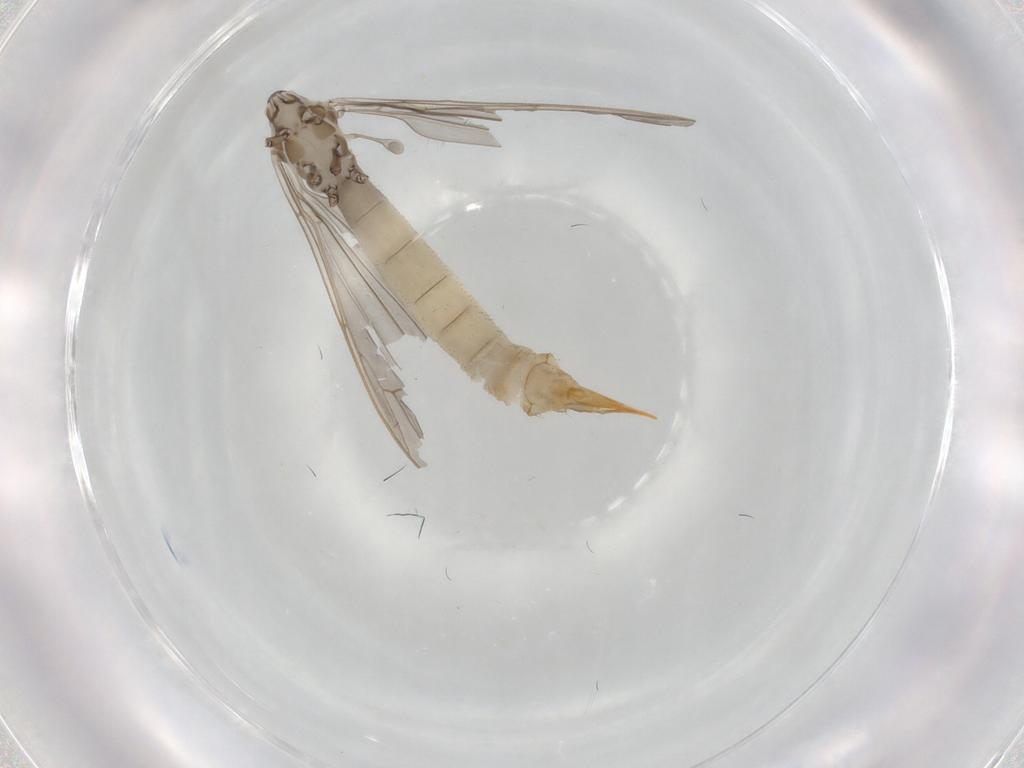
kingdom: Animalia
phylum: Arthropoda
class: Insecta
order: Diptera
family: Limoniidae
